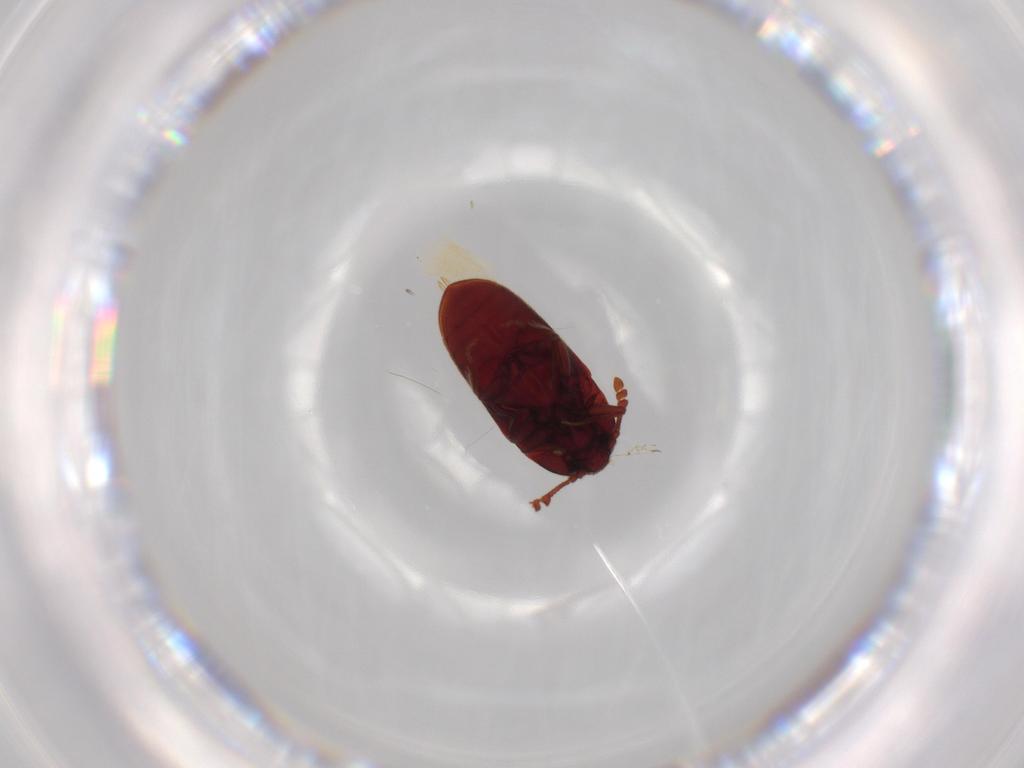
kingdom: Animalia
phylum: Arthropoda
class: Insecta
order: Coleoptera
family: Throscidae
